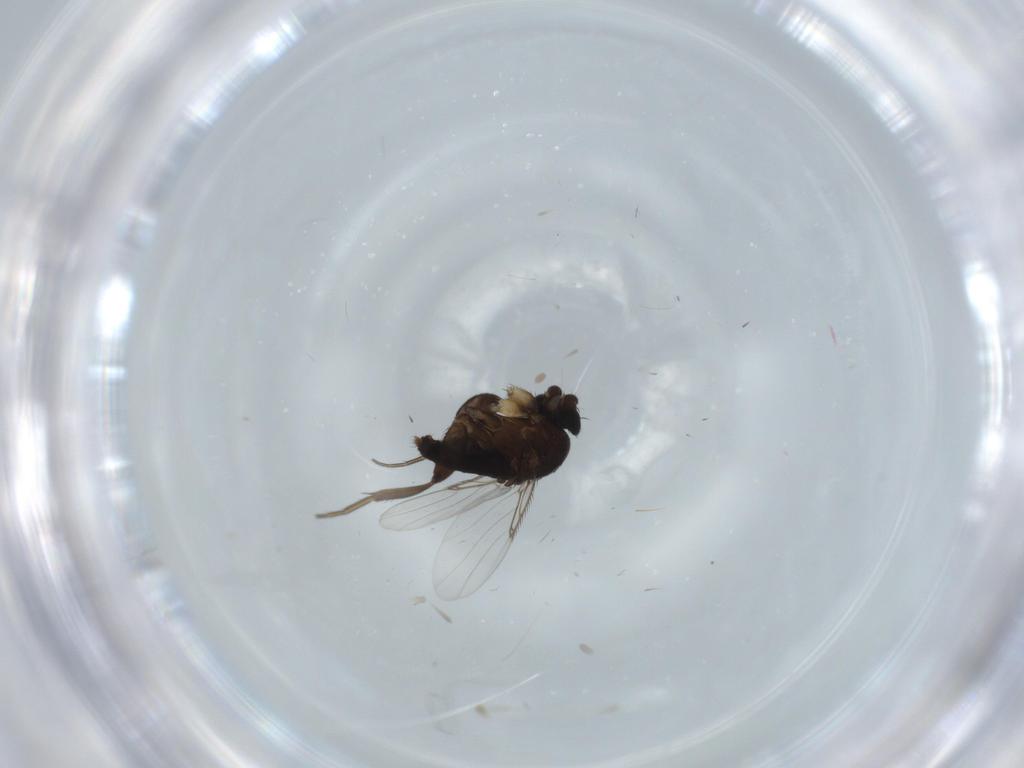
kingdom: Animalia
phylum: Arthropoda
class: Insecta
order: Diptera
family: Phoridae
